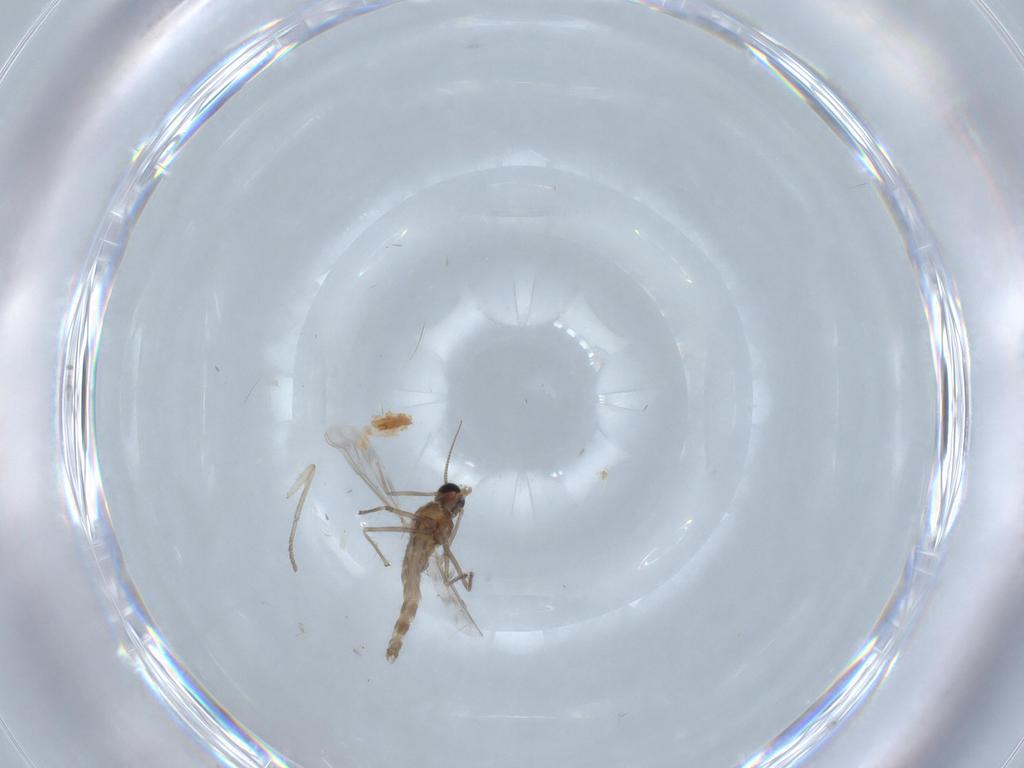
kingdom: Animalia
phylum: Arthropoda
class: Insecta
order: Diptera
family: Chironomidae
